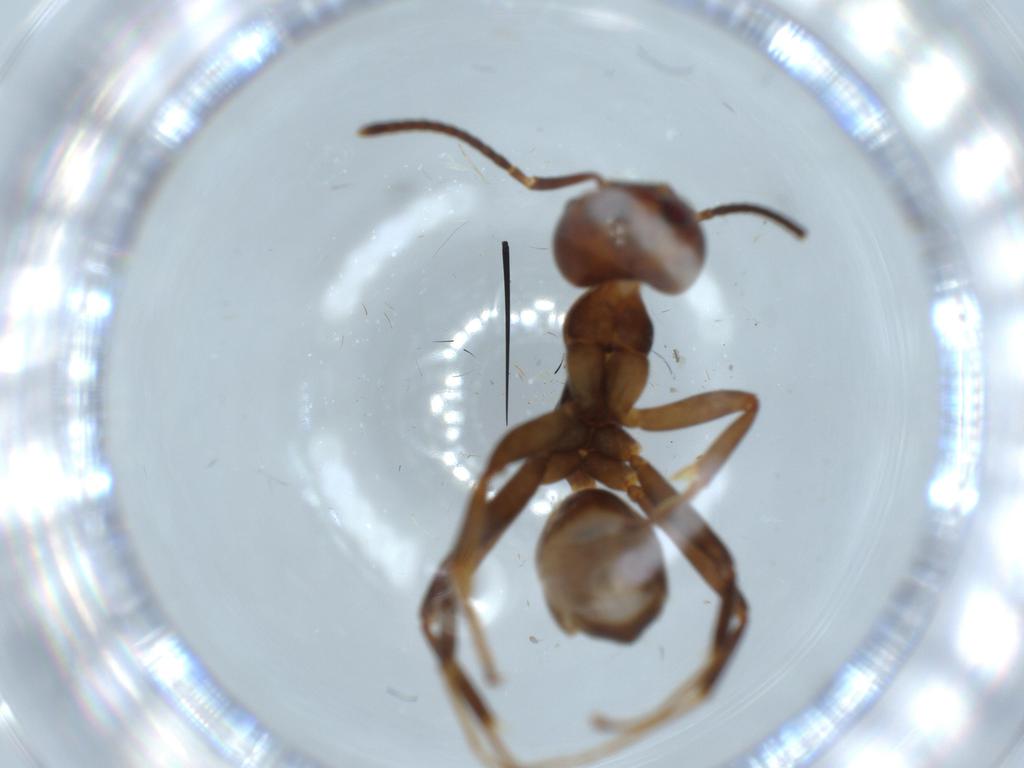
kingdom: Animalia
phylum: Arthropoda
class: Insecta
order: Hymenoptera
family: Formicidae
